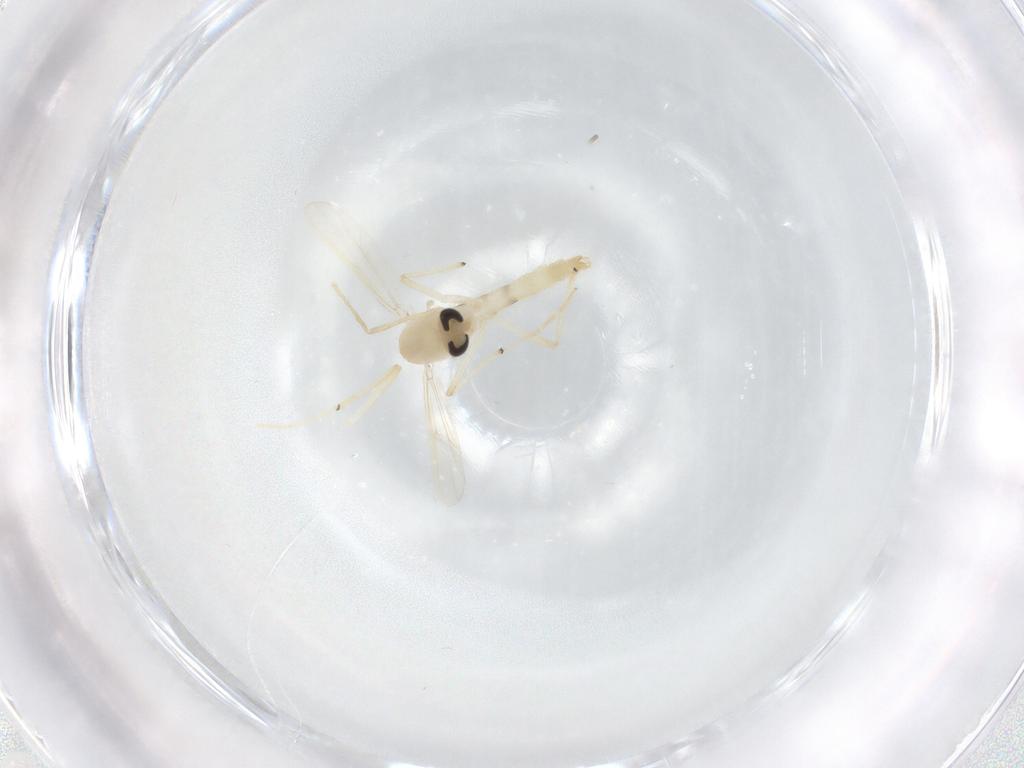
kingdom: Animalia
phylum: Arthropoda
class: Insecta
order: Diptera
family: Chironomidae
